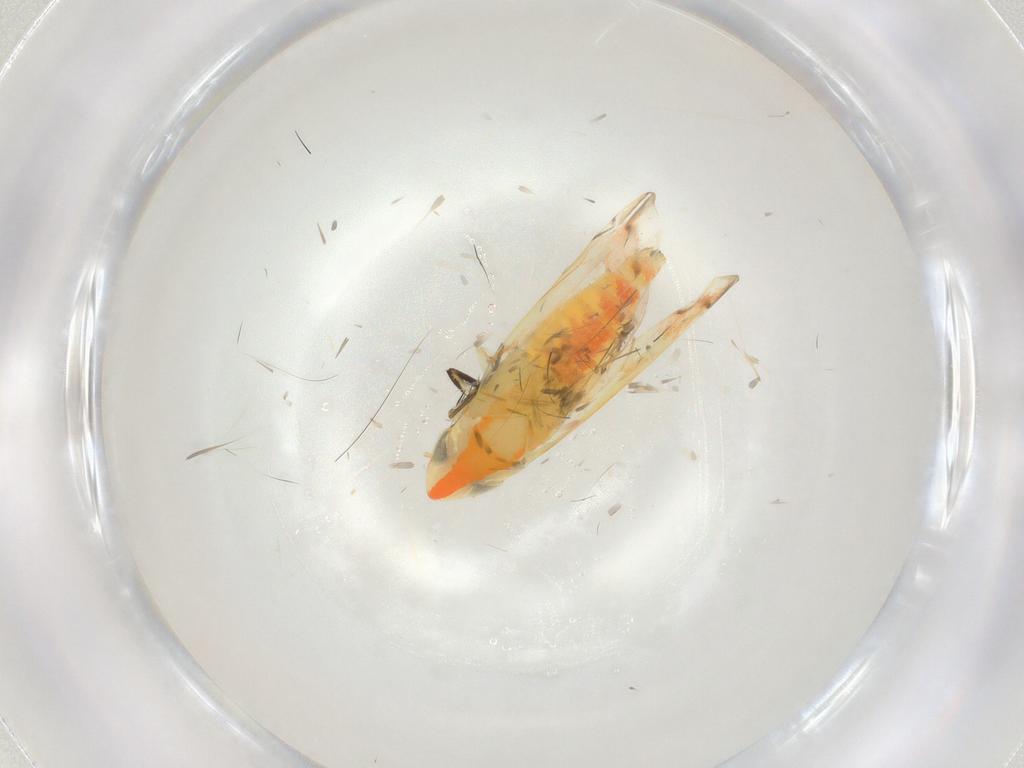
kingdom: Animalia
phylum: Arthropoda
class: Insecta
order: Hemiptera
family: Cicadellidae
